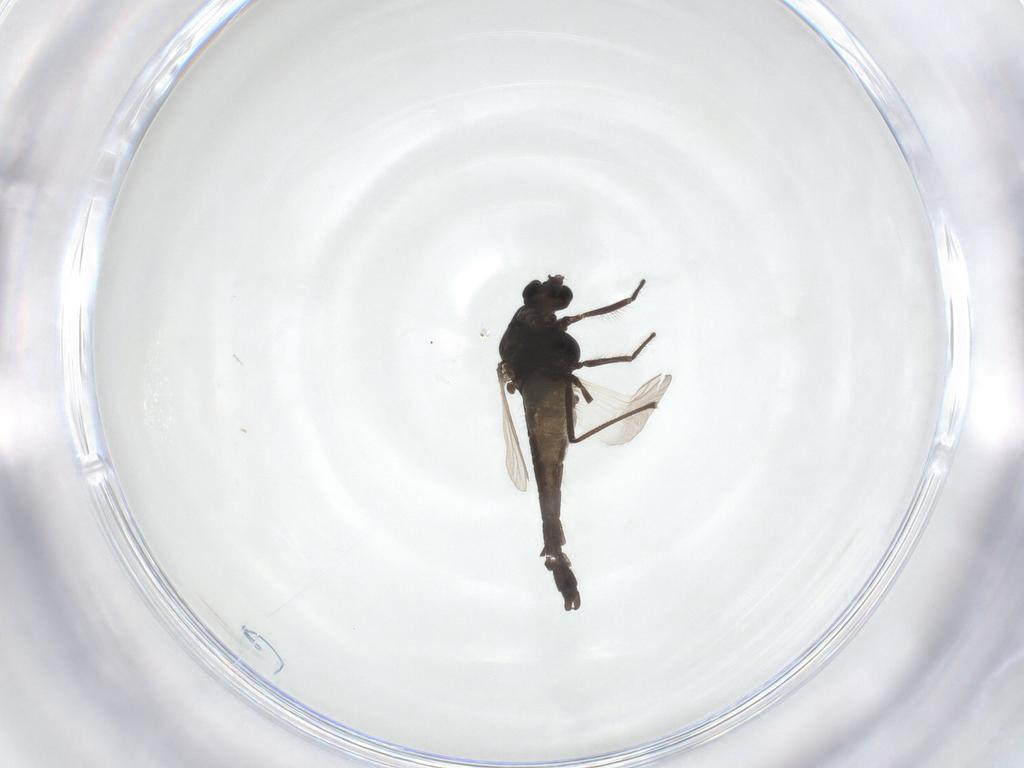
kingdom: Animalia
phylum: Arthropoda
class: Insecta
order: Diptera
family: Chironomidae
